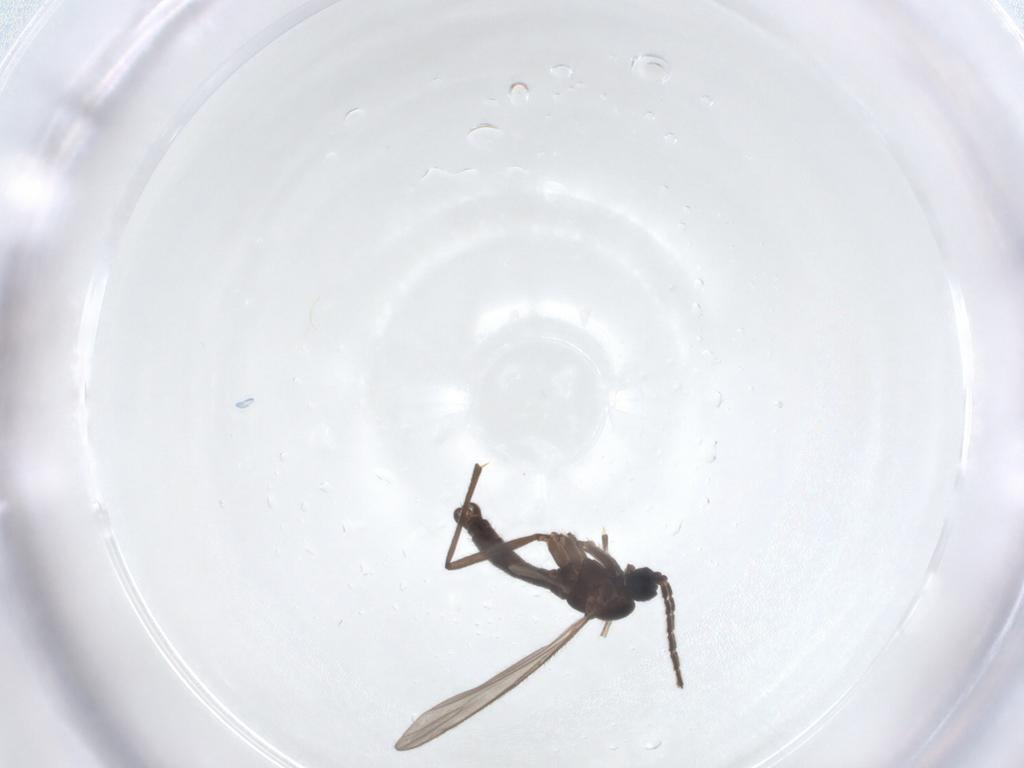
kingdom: Animalia
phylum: Arthropoda
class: Insecta
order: Diptera
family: Sciaridae
